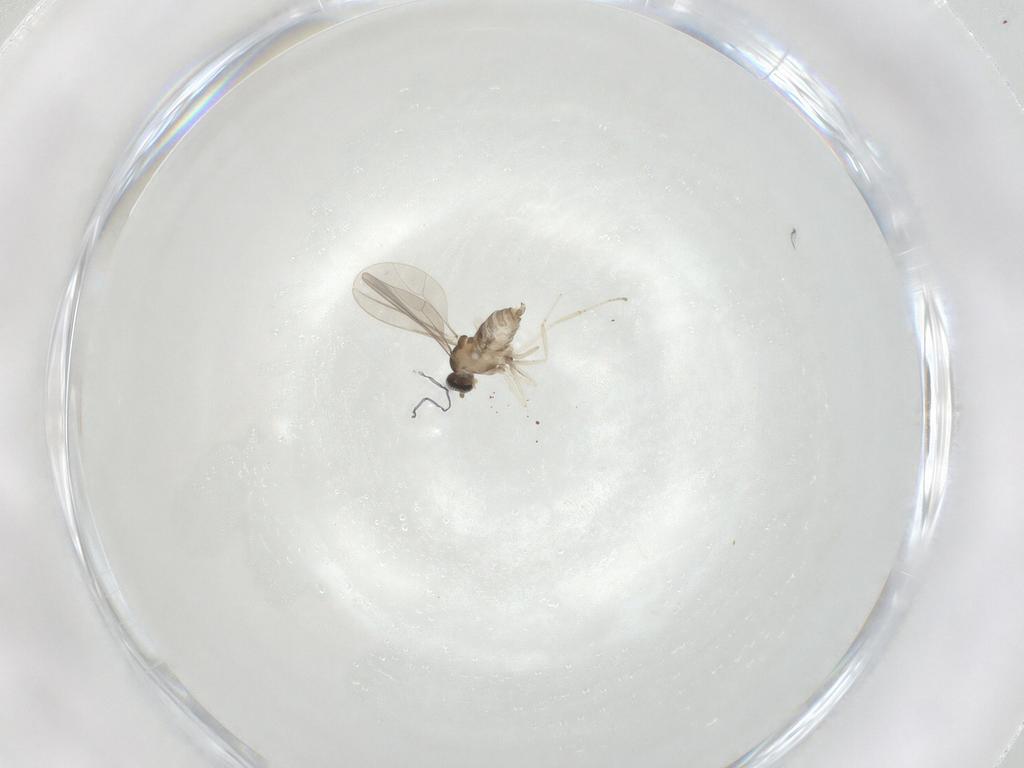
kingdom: Animalia
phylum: Arthropoda
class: Insecta
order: Diptera
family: Cecidomyiidae
